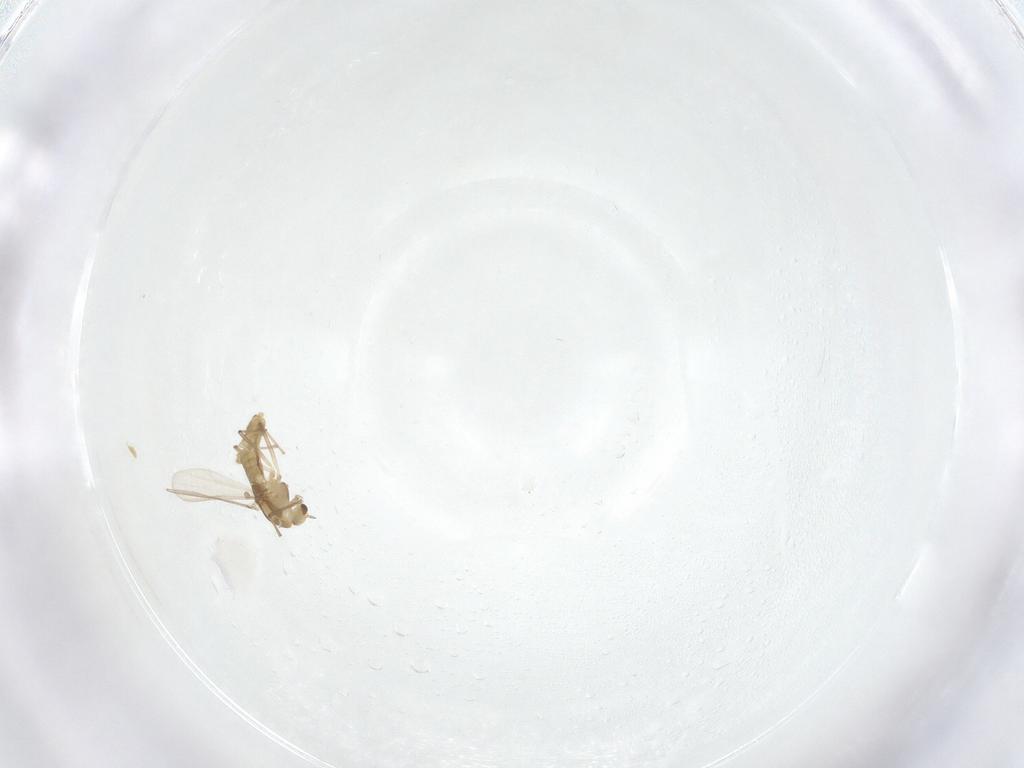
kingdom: Animalia
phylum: Arthropoda
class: Insecta
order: Diptera
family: Chironomidae
